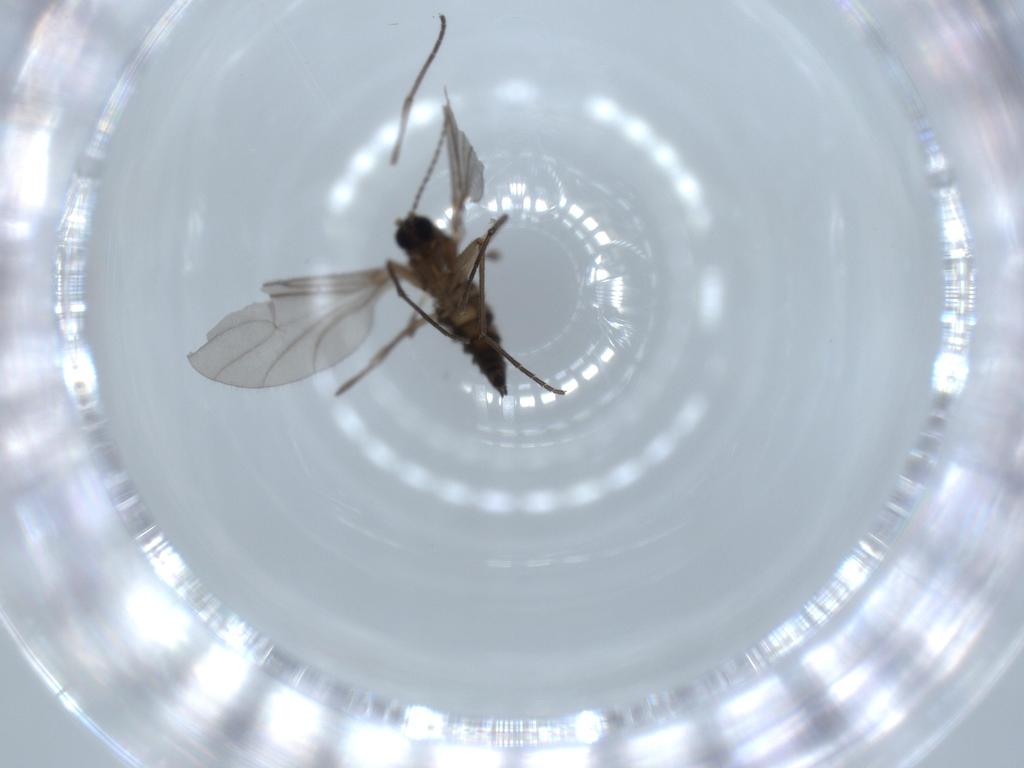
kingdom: Animalia
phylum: Arthropoda
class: Insecta
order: Diptera
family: Sciaridae
